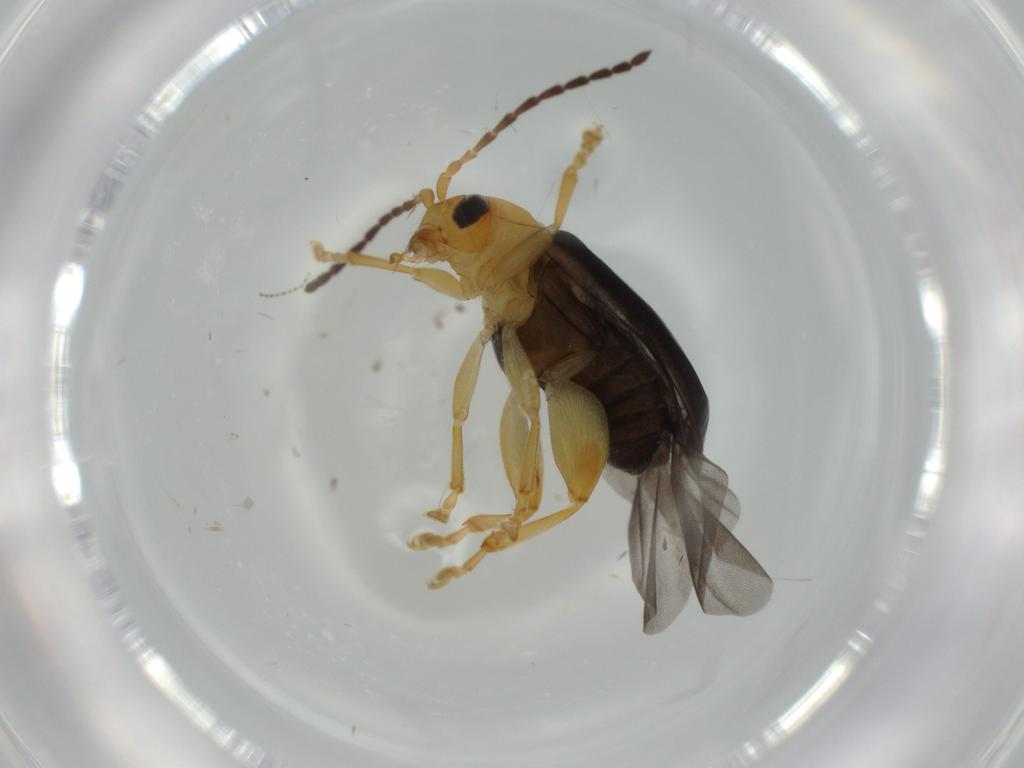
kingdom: Animalia
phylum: Arthropoda
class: Insecta
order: Coleoptera
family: Chrysomelidae
